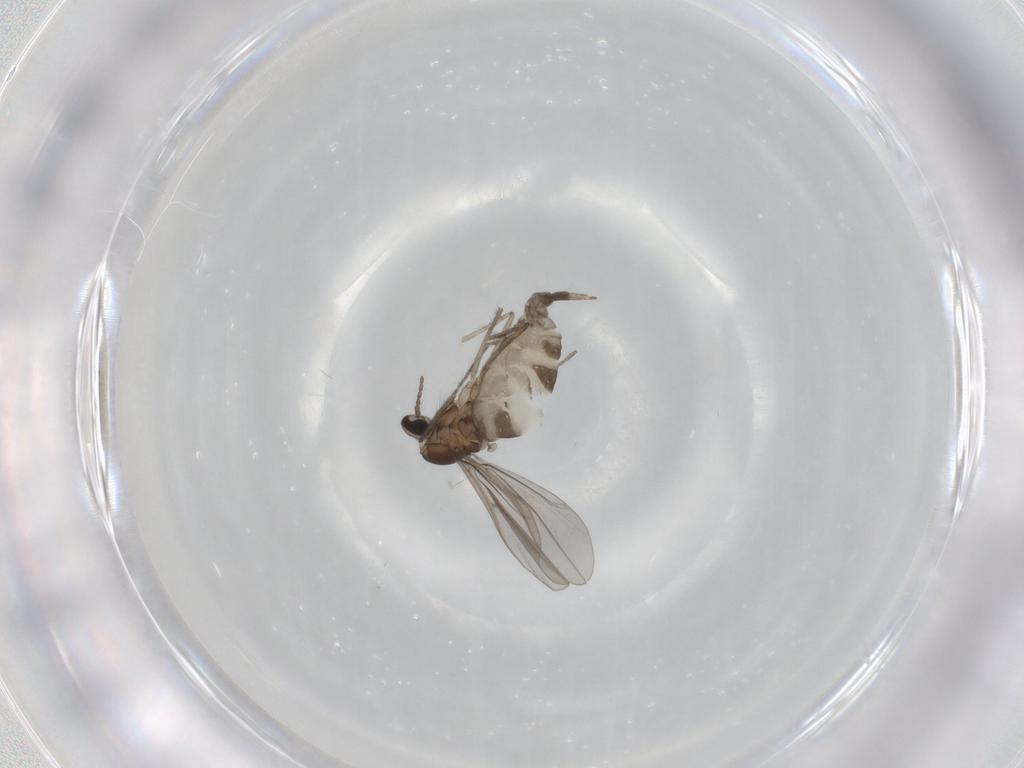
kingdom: Animalia
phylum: Arthropoda
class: Insecta
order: Diptera
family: Cecidomyiidae
